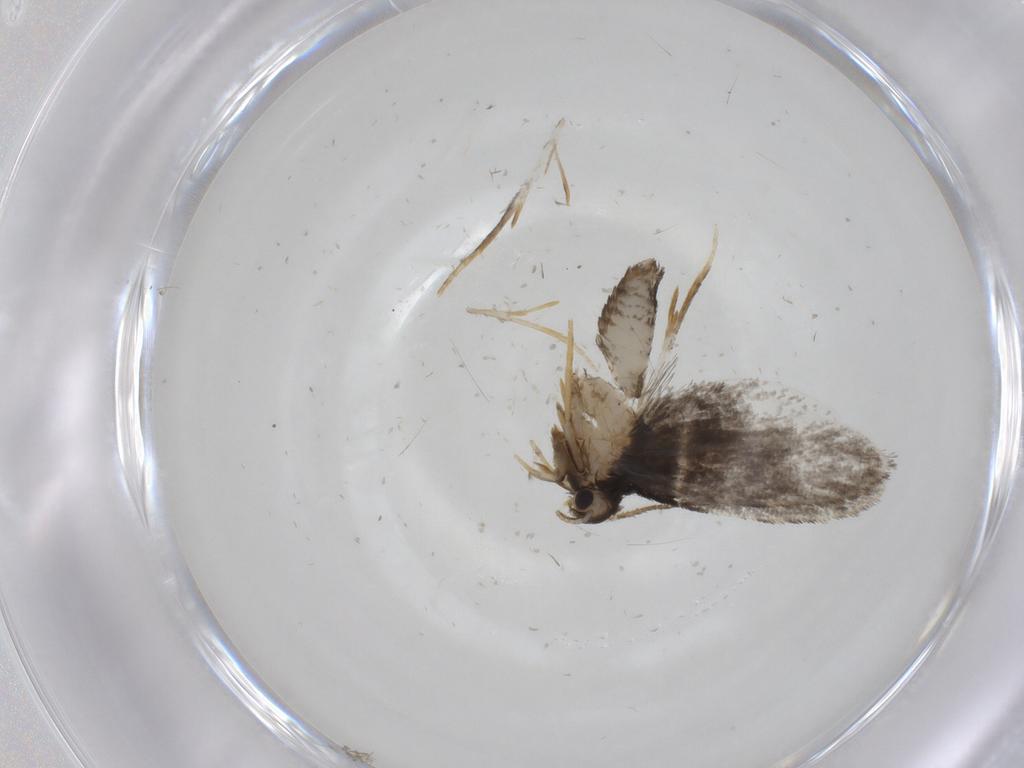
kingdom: Animalia
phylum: Arthropoda
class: Insecta
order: Lepidoptera
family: Psychidae
